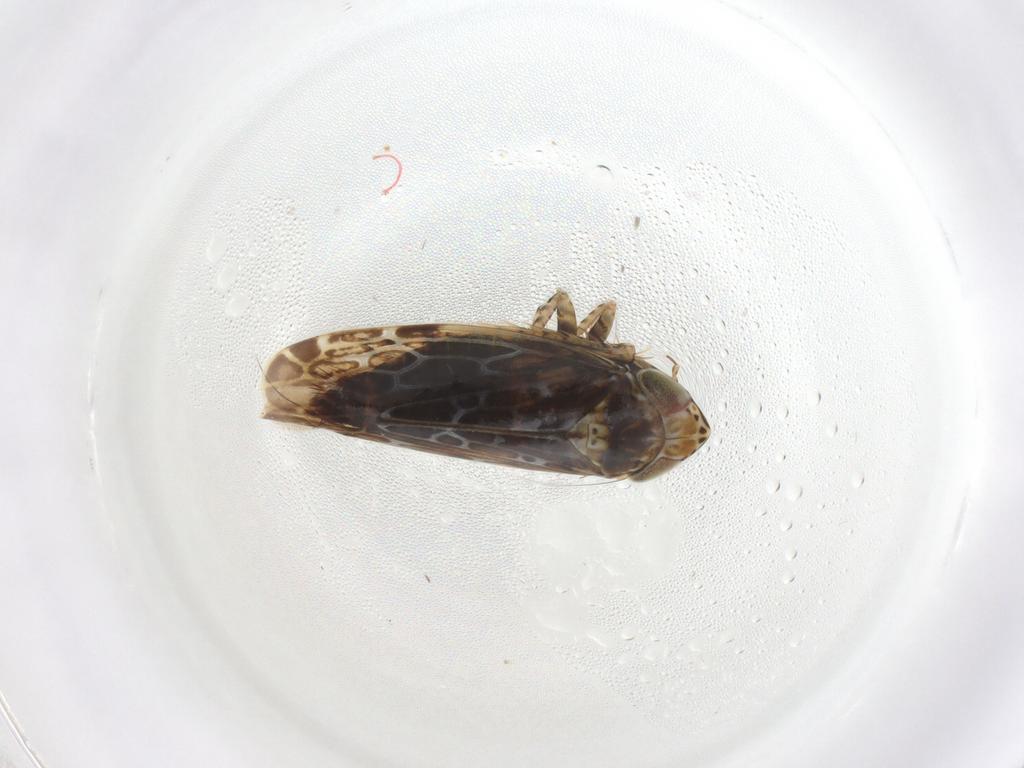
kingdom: Animalia
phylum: Arthropoda
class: Insecta
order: Hemiptera
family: Cicadellidae
